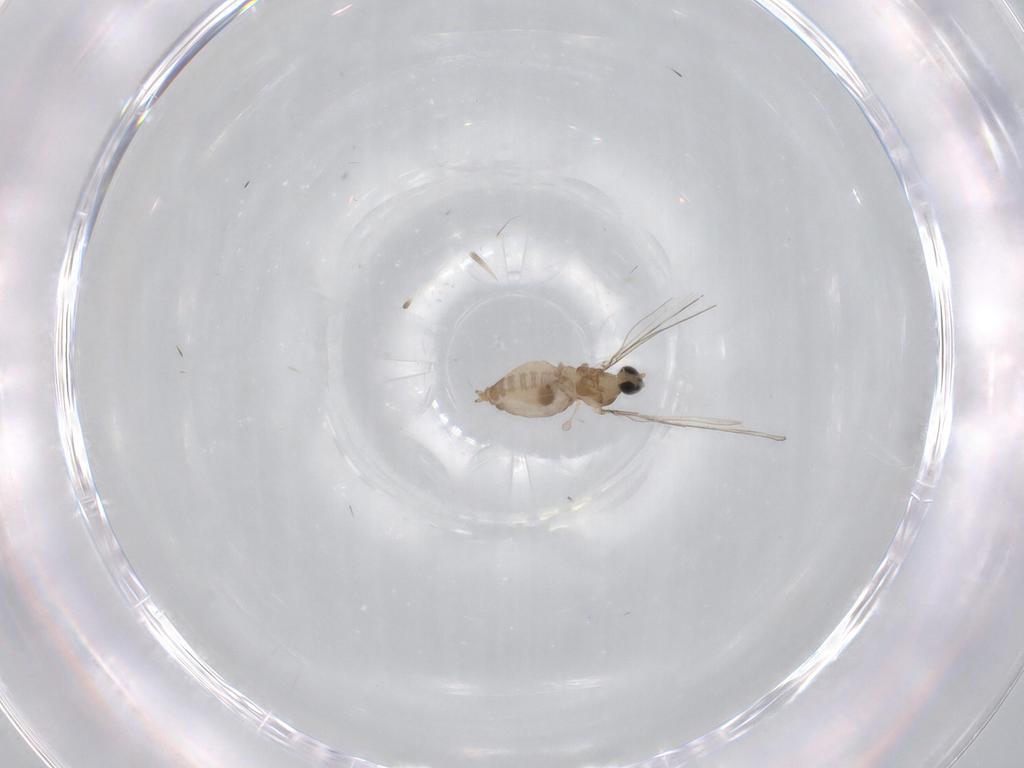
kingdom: Animalia
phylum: Arthropoda
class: Insecta
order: Diptera
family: Cecidomyiidae
